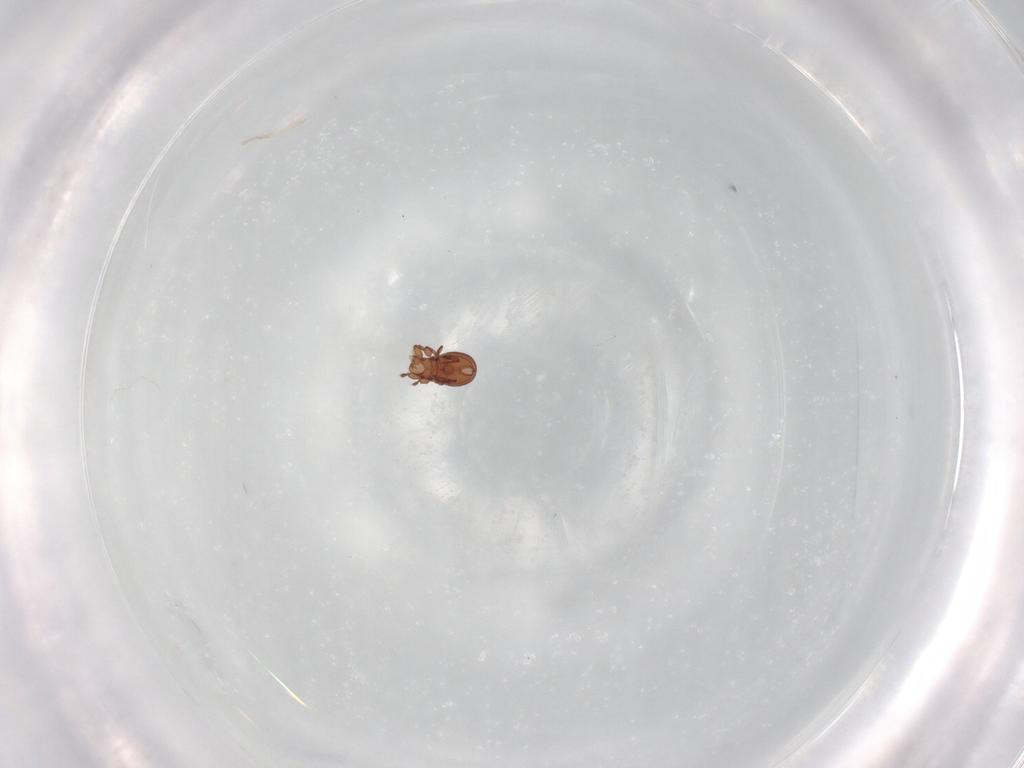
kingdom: Animalia
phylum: Arthropoda
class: Arachnida
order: Sarcoptiformes
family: Eremaeidae
